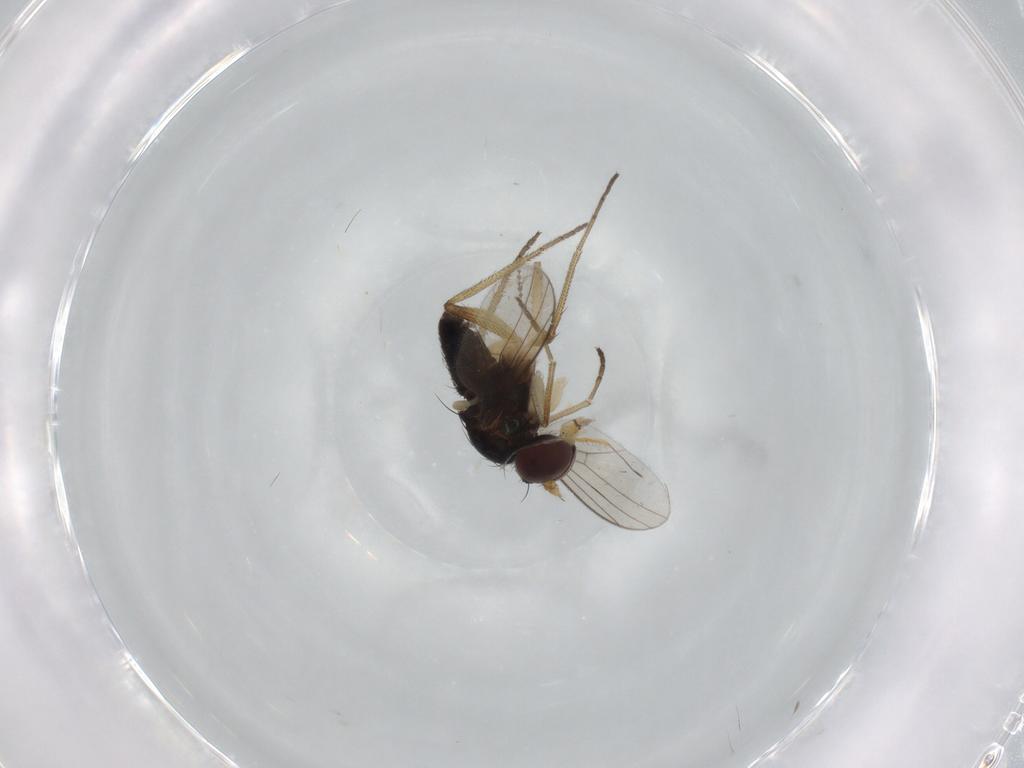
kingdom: Animalia
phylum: Arthropoda
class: Insecta
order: Diptera
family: Dolichopodidae
